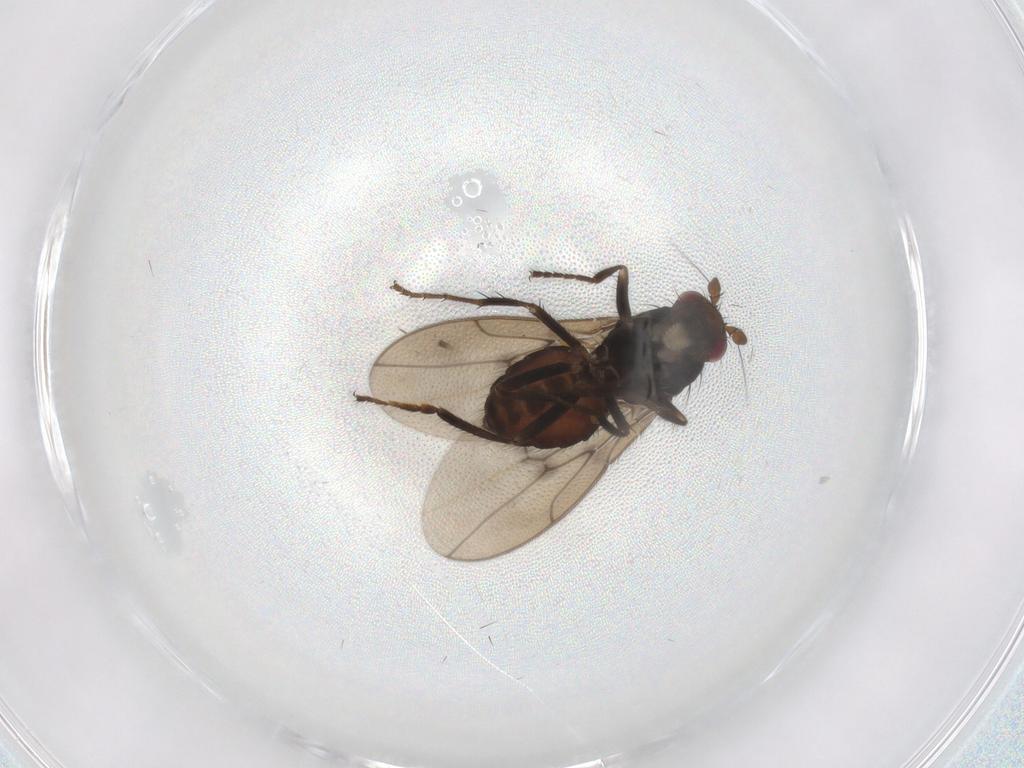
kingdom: Animalia
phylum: Arthropoda
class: Insecta
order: Diptera
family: Sphaeroceridae
